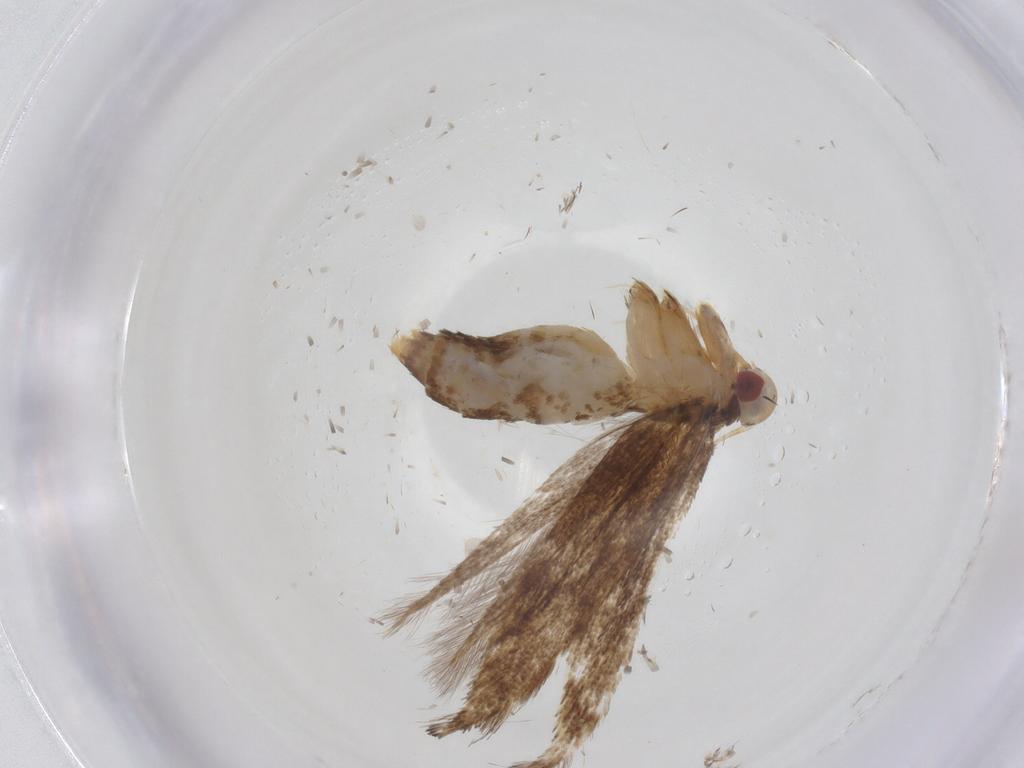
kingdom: Animalia
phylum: Arthropoda
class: Insecta
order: Lepidoptera
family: Cosmopterigidae
